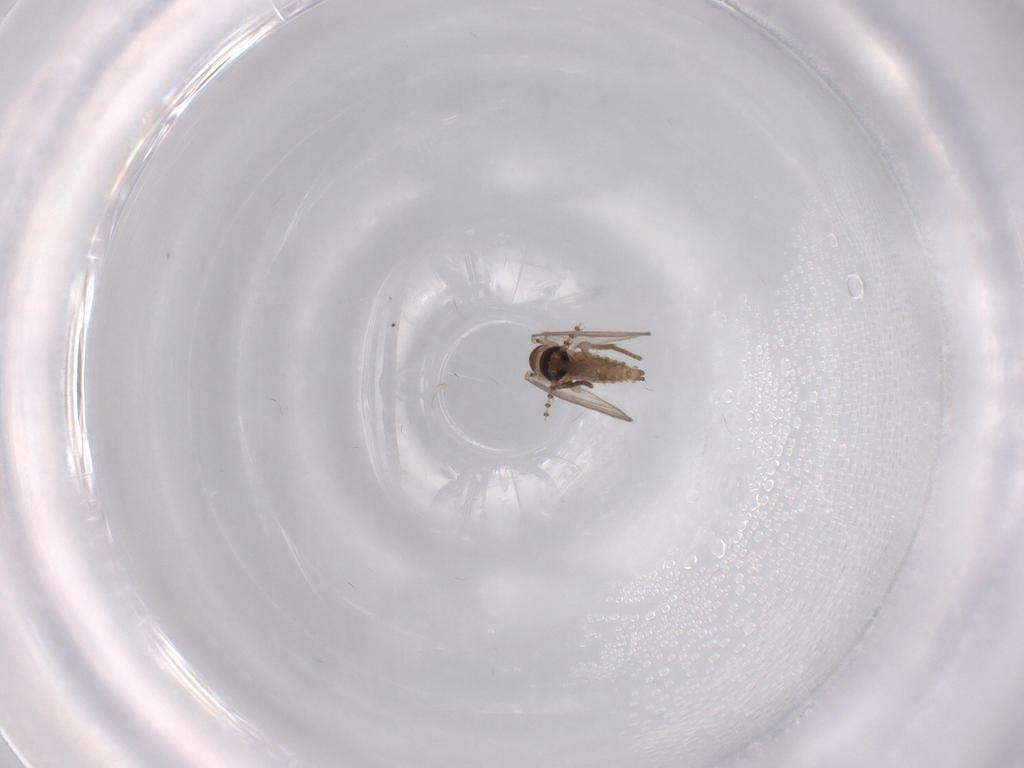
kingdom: Animalia
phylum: Arthropoda
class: Insecta
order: Diptera
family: Psychodidae
